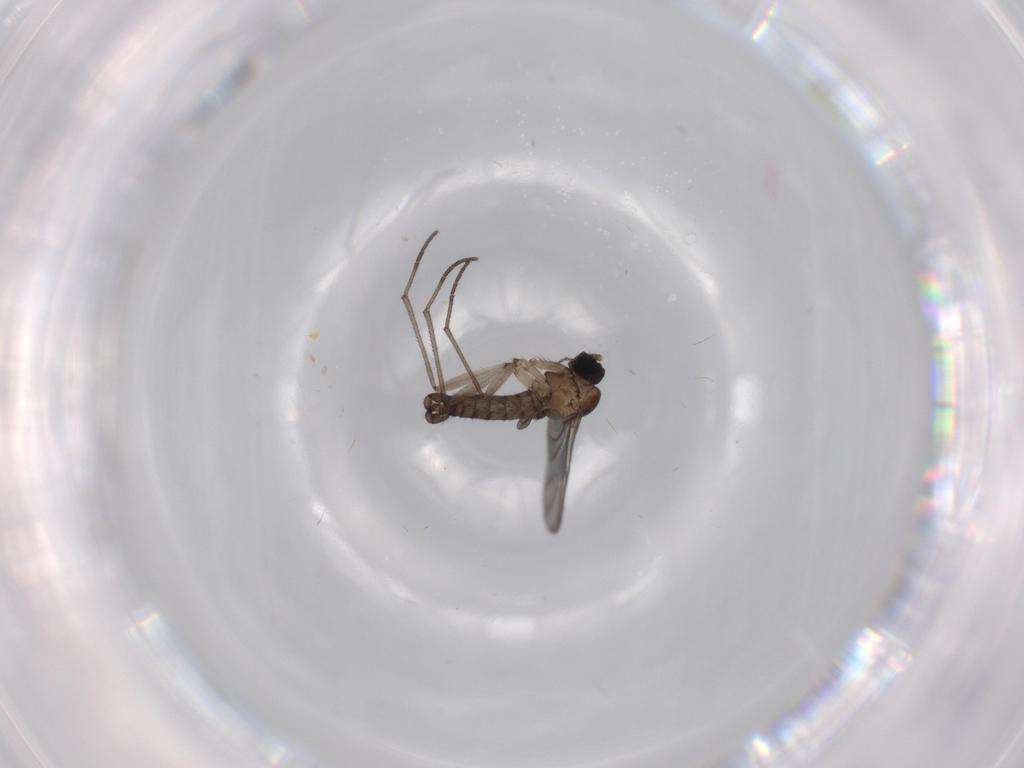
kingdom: Animalia
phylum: Arthropoda
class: Insecta
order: Diptera
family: Sciaridae
